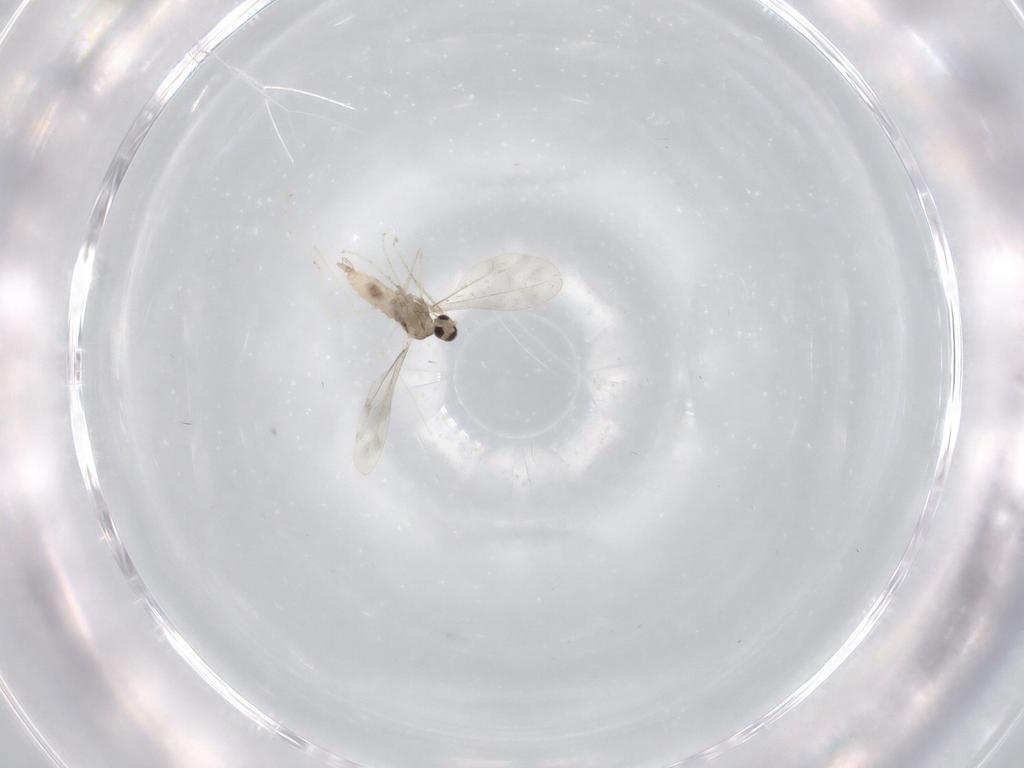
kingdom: Animalia
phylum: Arthropoda
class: Insecta
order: Diptera
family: Cecidomyiidae
